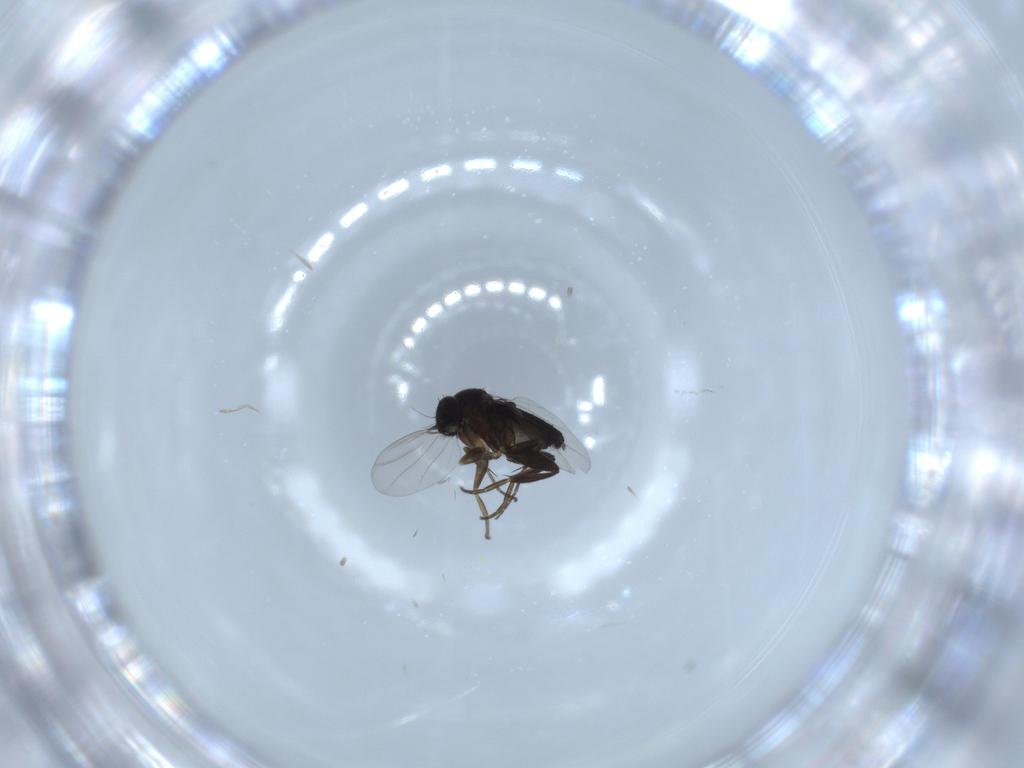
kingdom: Animalia
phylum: Arthropoda
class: Insecta
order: Diptera
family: Phoridae
